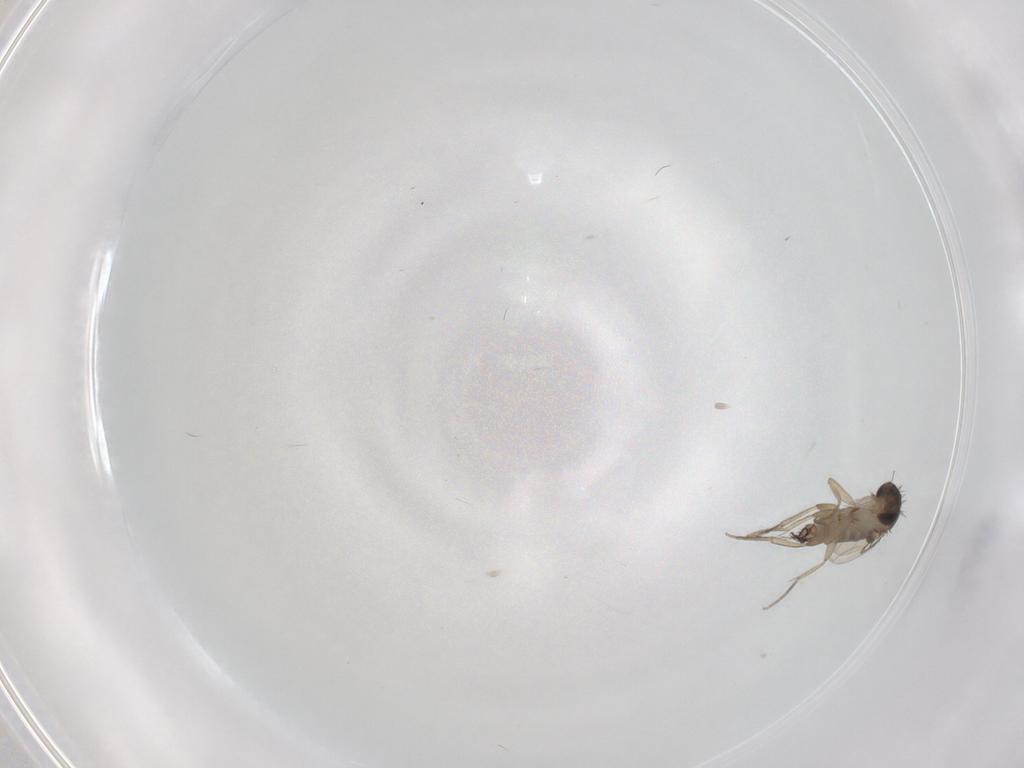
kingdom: Animalia
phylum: Arthropoda
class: Insecta
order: Diptera
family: Phoridae
